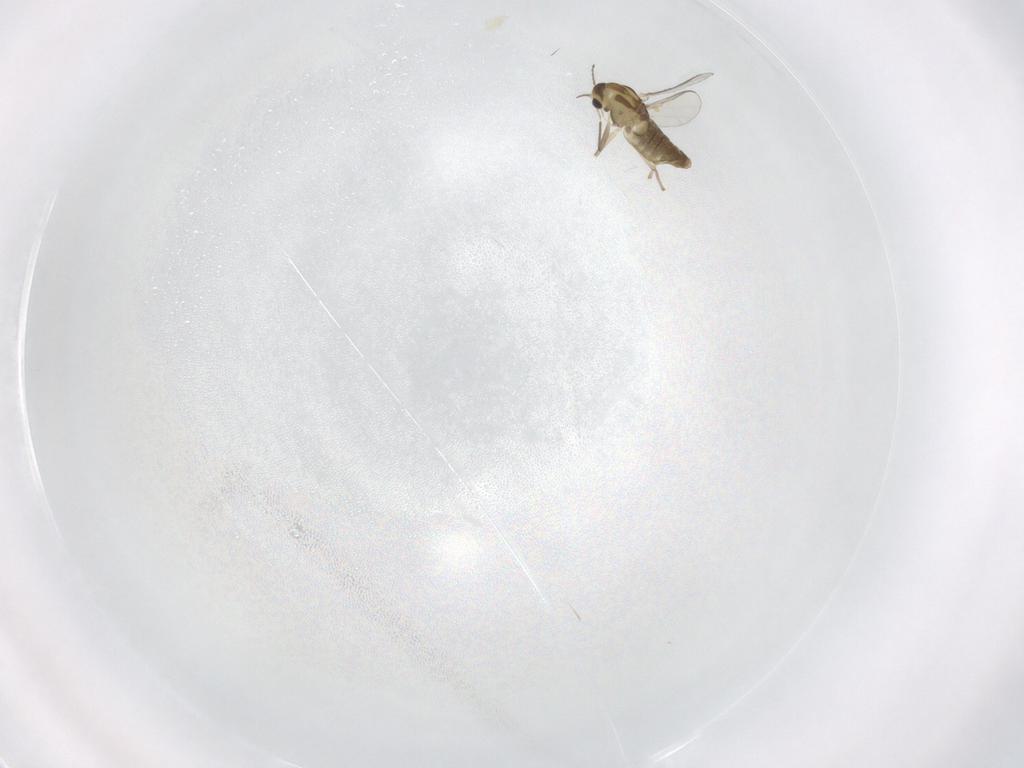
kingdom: Animalia
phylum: Arthropoda
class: Insecta
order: Diptera
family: Chironomidae
